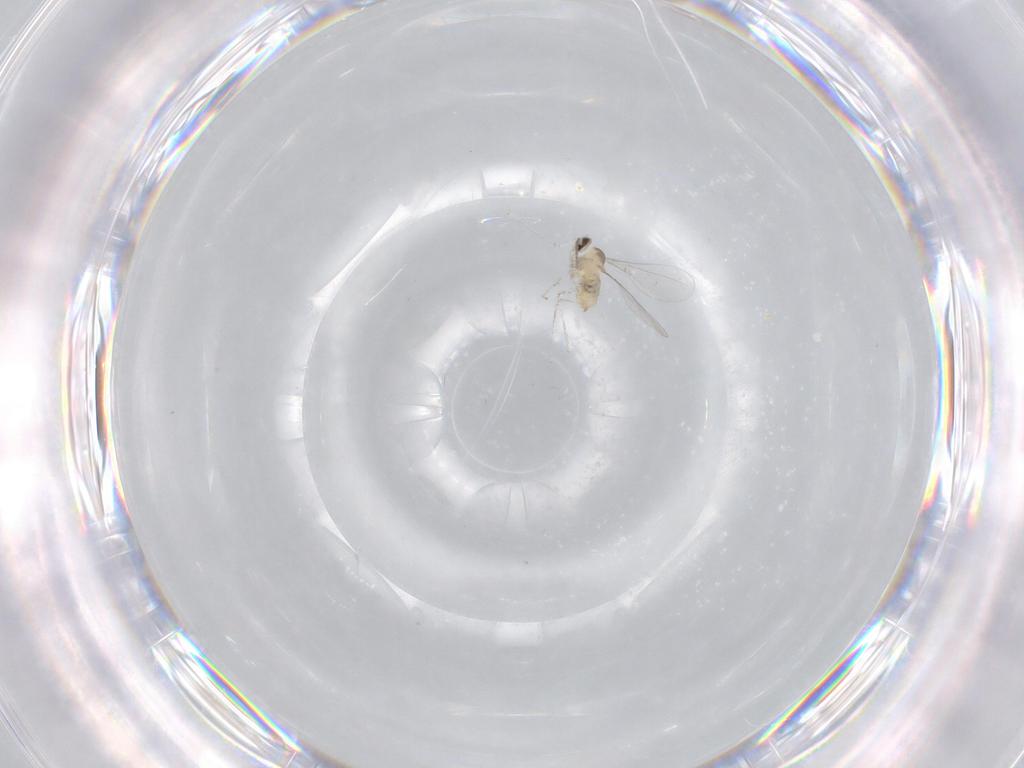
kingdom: Animalia
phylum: Arthropoda
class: Insecta
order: Diptera
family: Cecidomyiidae
